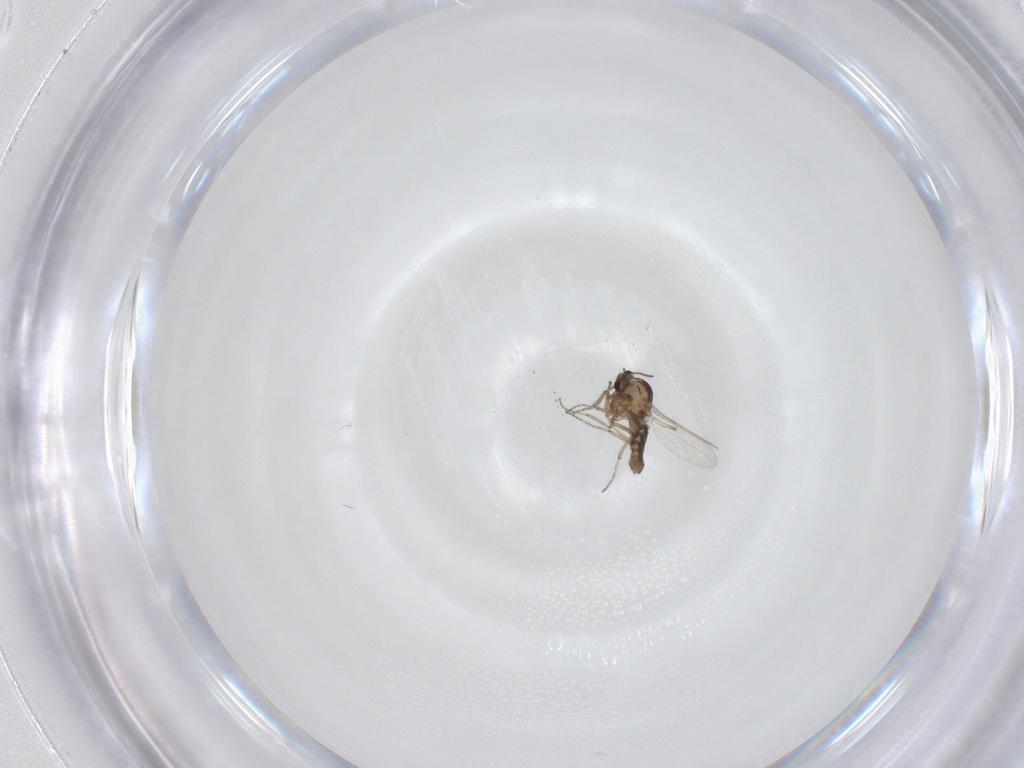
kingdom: Animalia
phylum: Arthropoda
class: Insecta
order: Diptera
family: Ceratopogonidae
